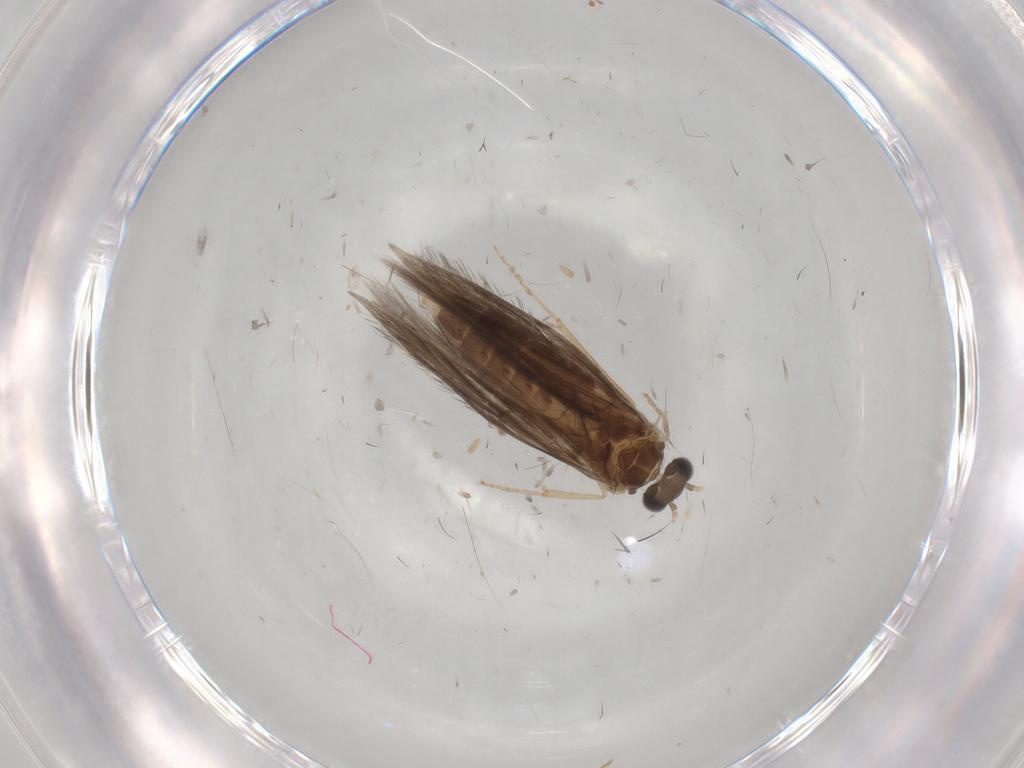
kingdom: Animalia
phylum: Arthropoda
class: Insecta
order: Trichoptera
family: Hydroptilidae
